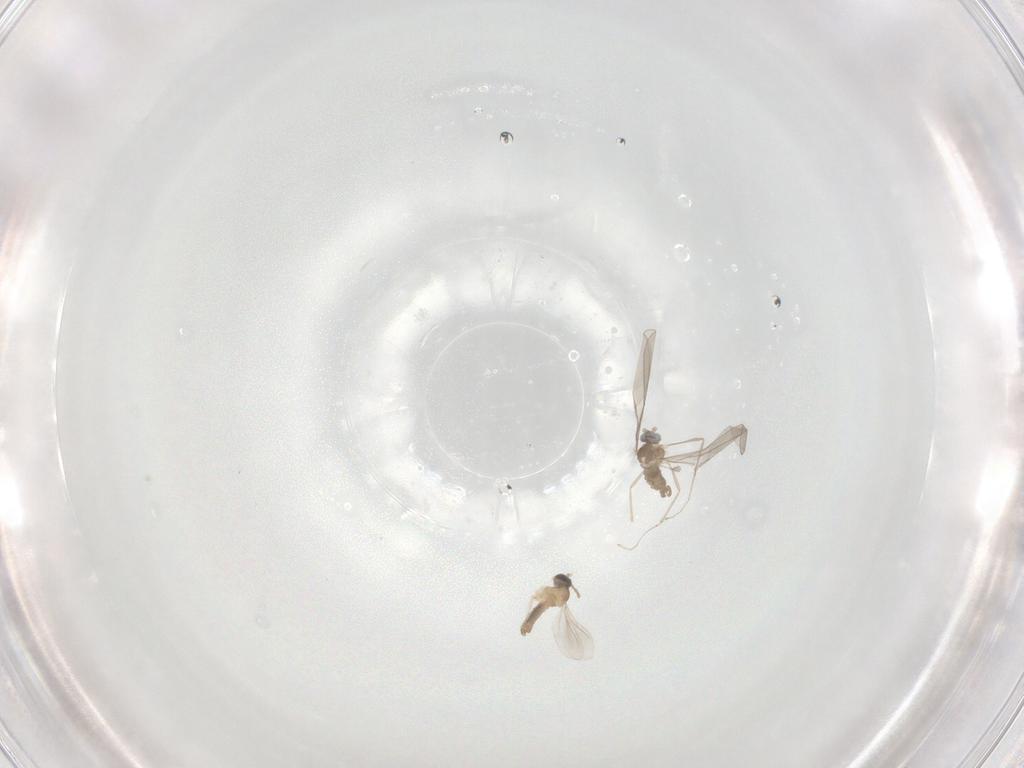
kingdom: Animalia
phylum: Arthropoda
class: Insecta
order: Diptera
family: Cecidomyiidae
